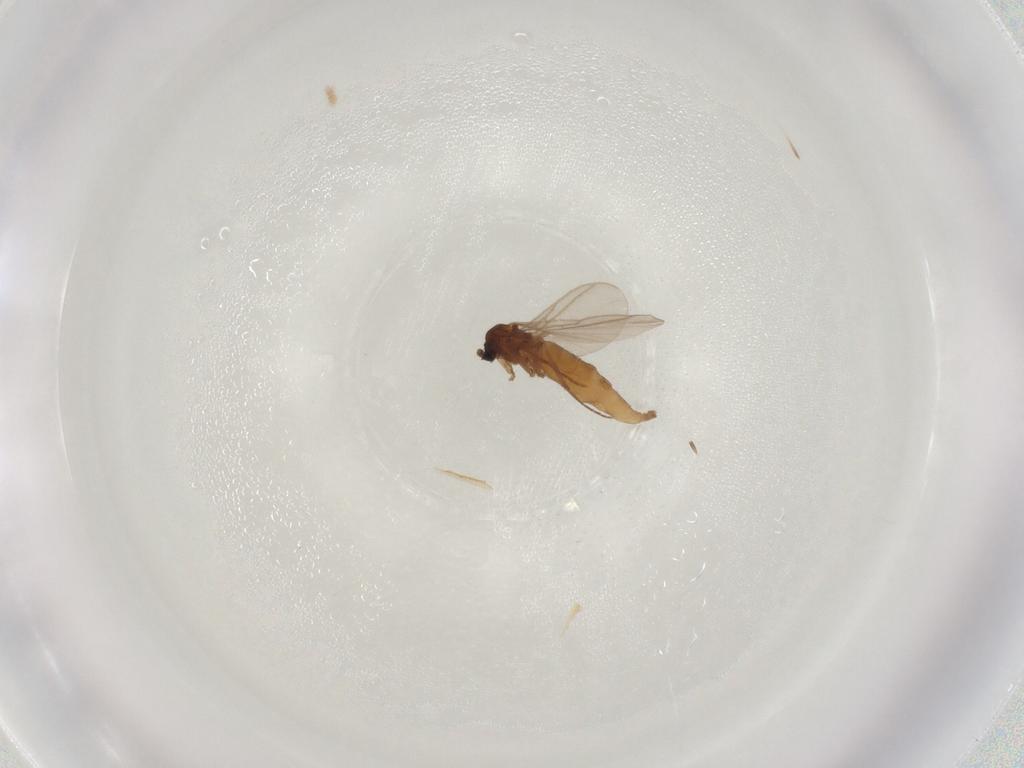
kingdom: Animalia
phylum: Arthropoda
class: Insecta
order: Diptera
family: Chloropidae
